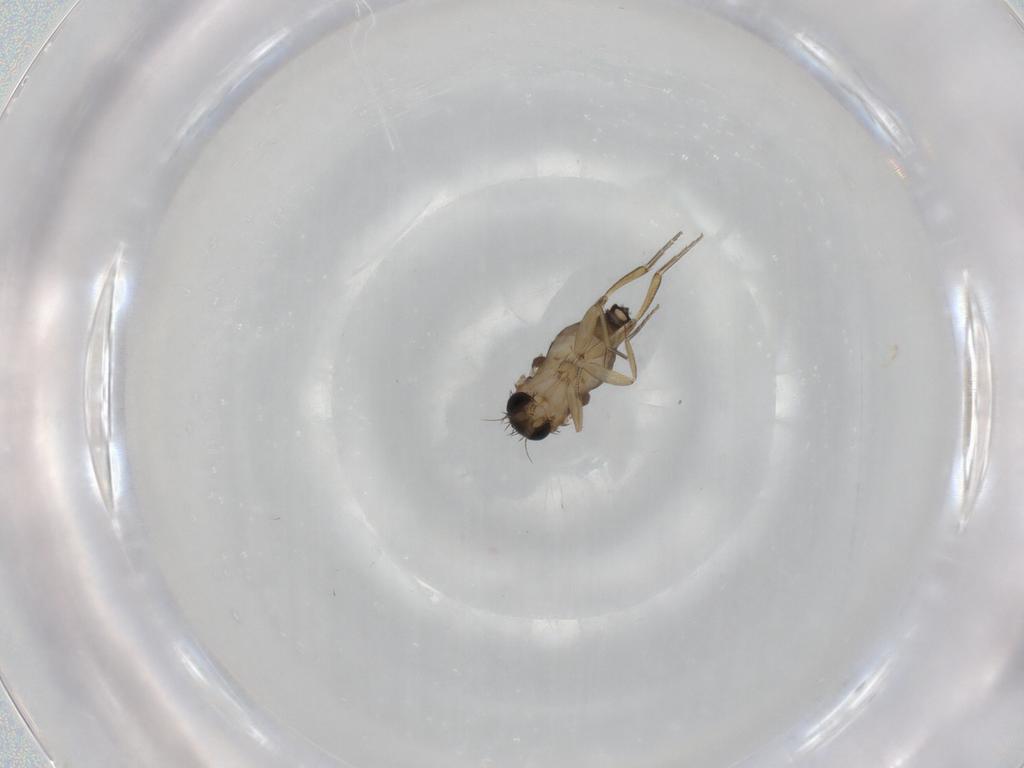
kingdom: Animalia
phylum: Arthropoda
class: Insecta
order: Diptera
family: Phoridae
